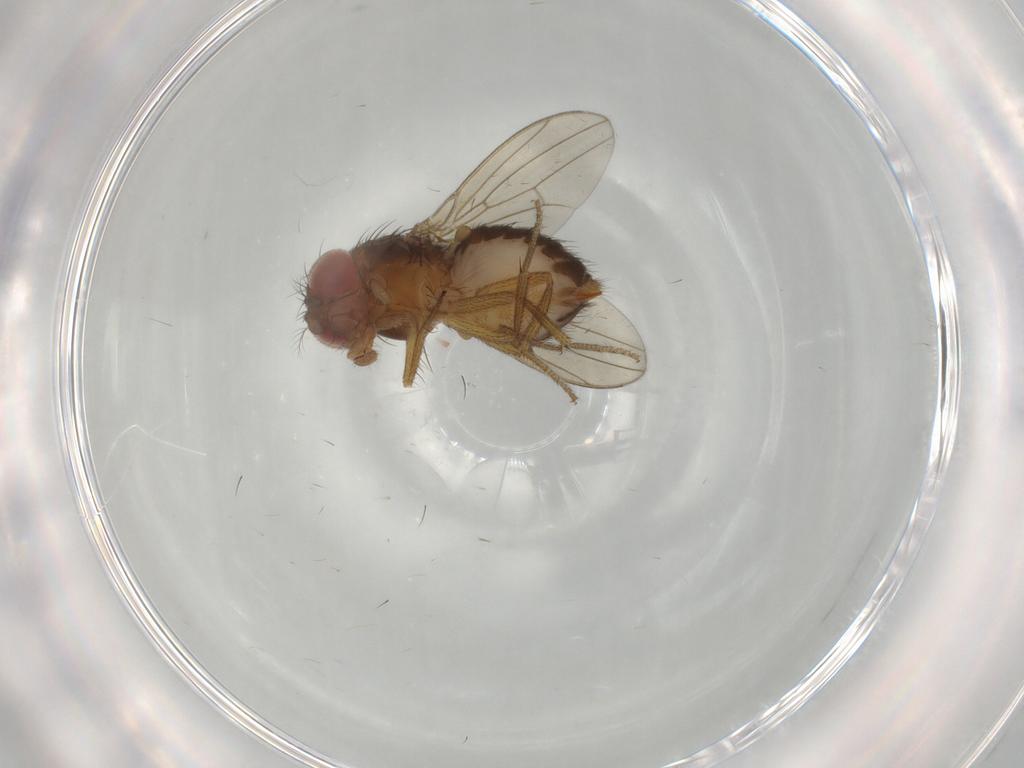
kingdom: Animalia
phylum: Arthropoda
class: Insecta
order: Diptera
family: Drosophilidae
